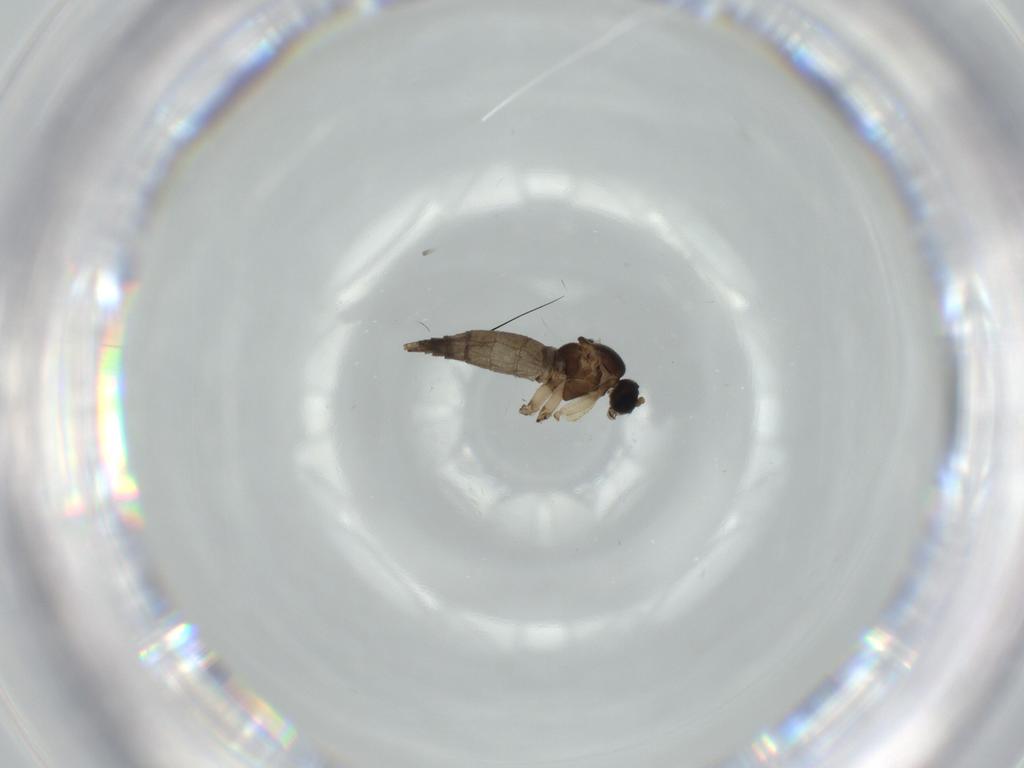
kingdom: Animalia
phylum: Arthropoda
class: Insecta
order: Diptera
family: Sciaridae
